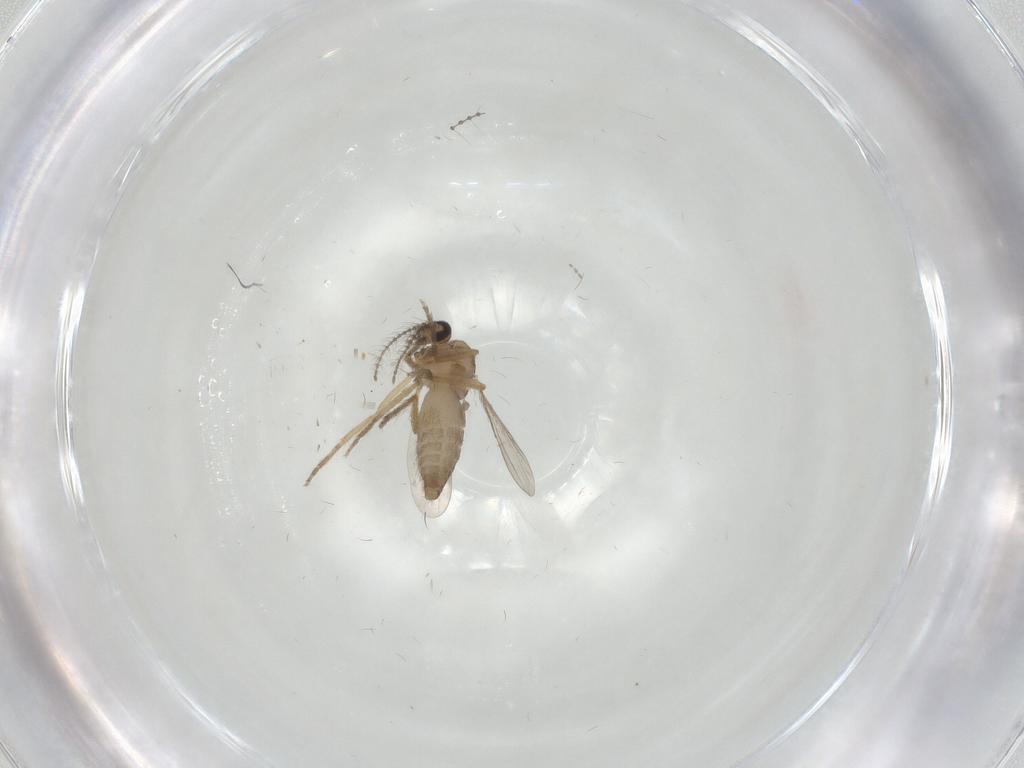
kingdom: Animalia
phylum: Arthropoda
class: Insecta
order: Diptera
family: Ceratopogonidae
